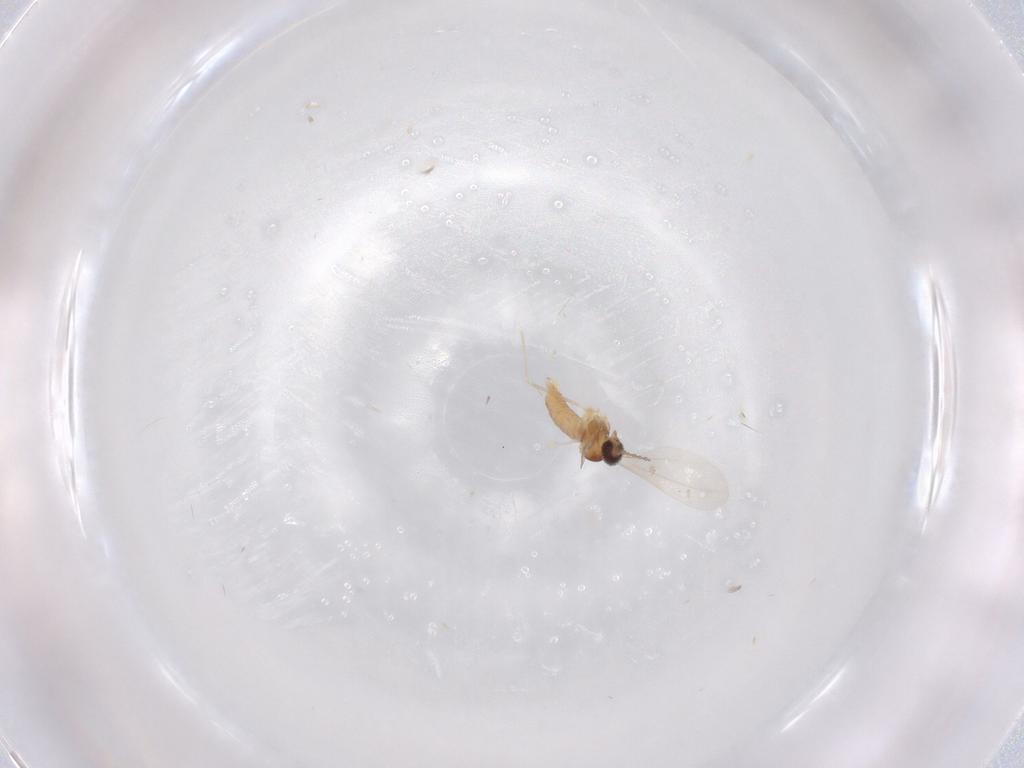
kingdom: Animalia
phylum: Arthropoda
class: Insecta
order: Diptera
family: Cecidomyiidae
